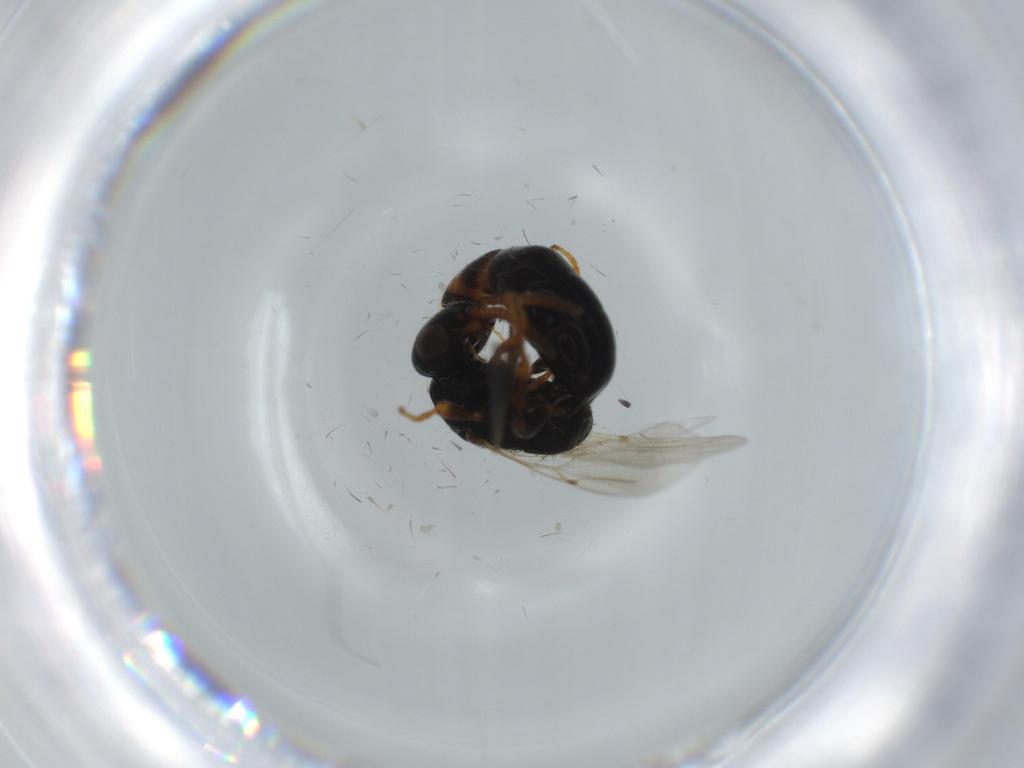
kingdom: Animalia
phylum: Arthropoda
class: Insecta
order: Hymenoptera
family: Bethylidae
